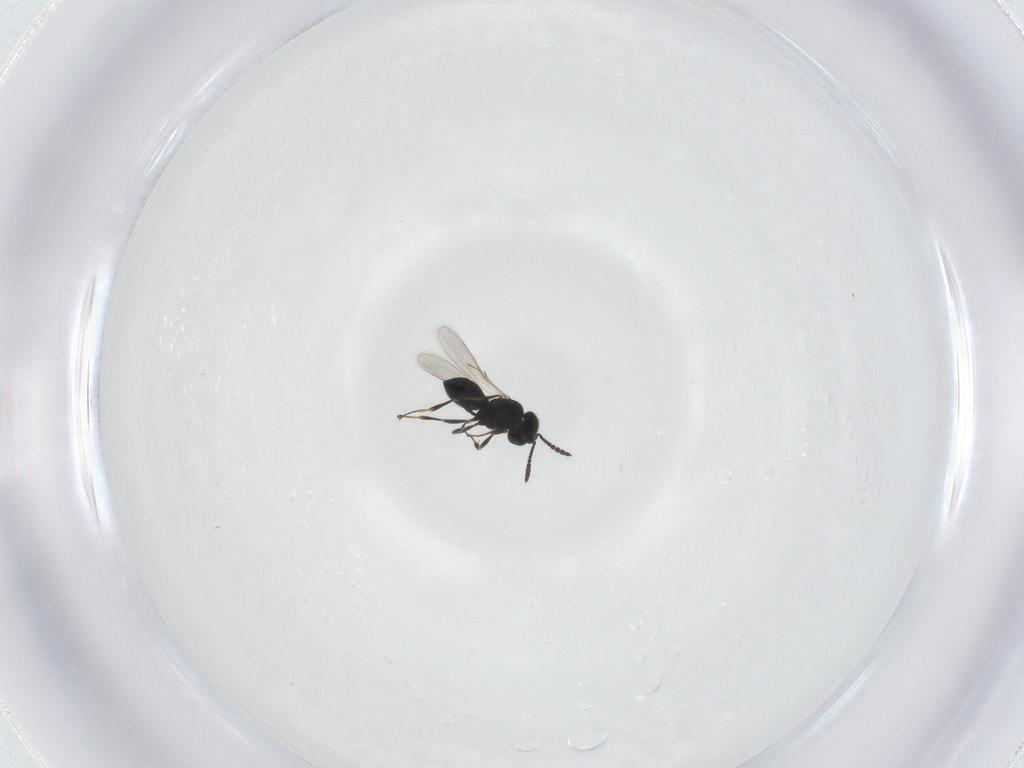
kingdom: Animalia
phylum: Arthropoda
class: Insecta
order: Hymenoptera
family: Scelionidae
